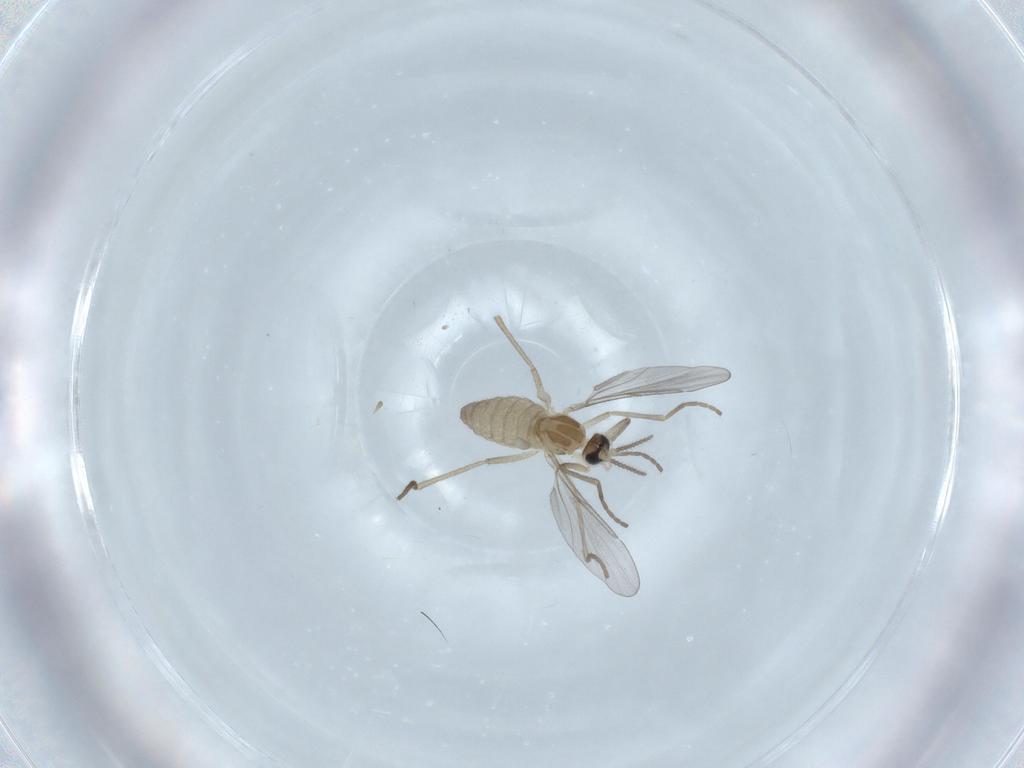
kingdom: Animalia
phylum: Arthropoda
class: Insecta
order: Diptera
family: Cecidomyiidae
